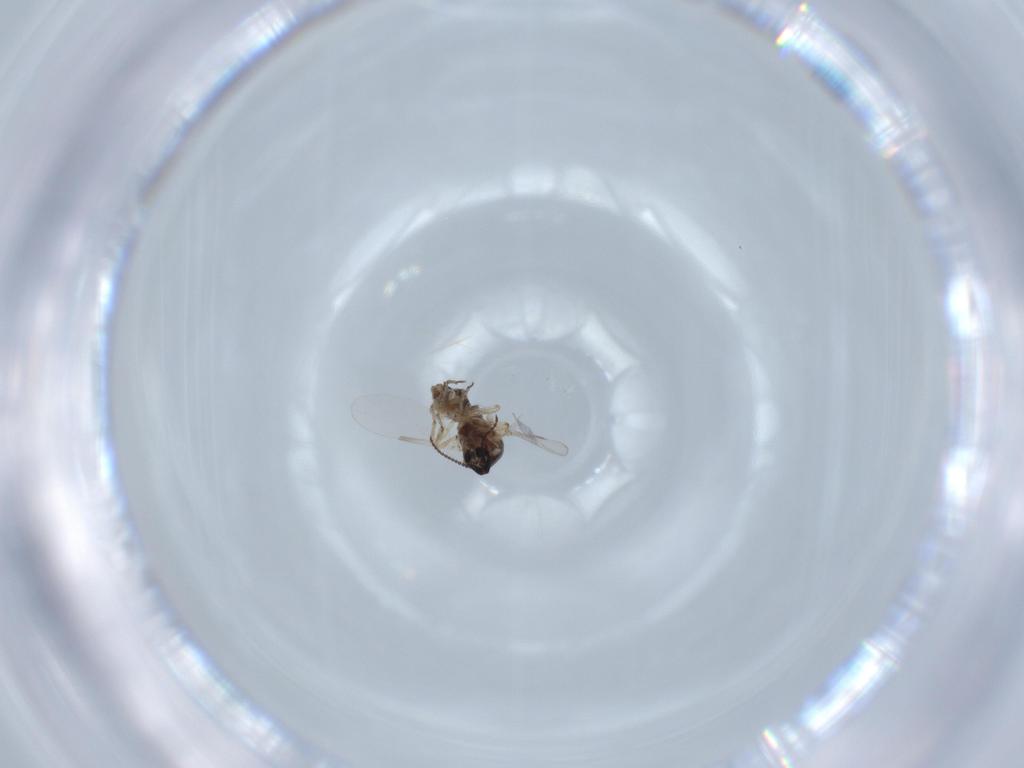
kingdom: Animalia
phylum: Arthropoda
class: Insecta
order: Diptera
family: Ceratopogonidae
